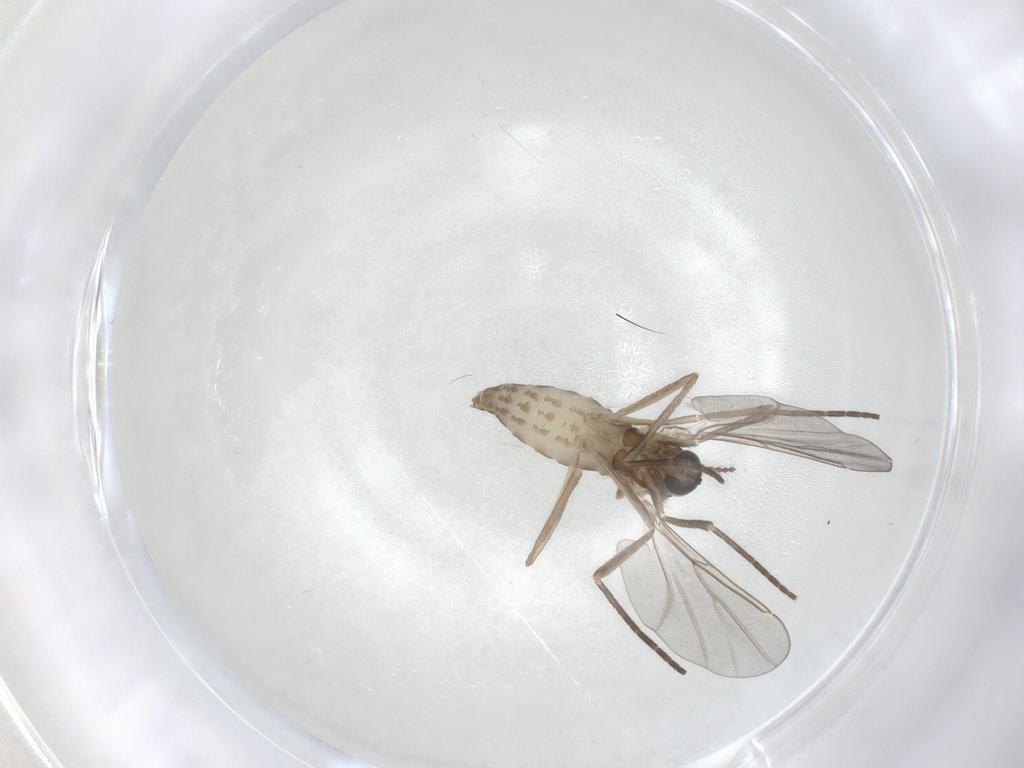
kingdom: Animalia
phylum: Arthropoda
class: Insecta
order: Diptera
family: Cecidomyiidae
